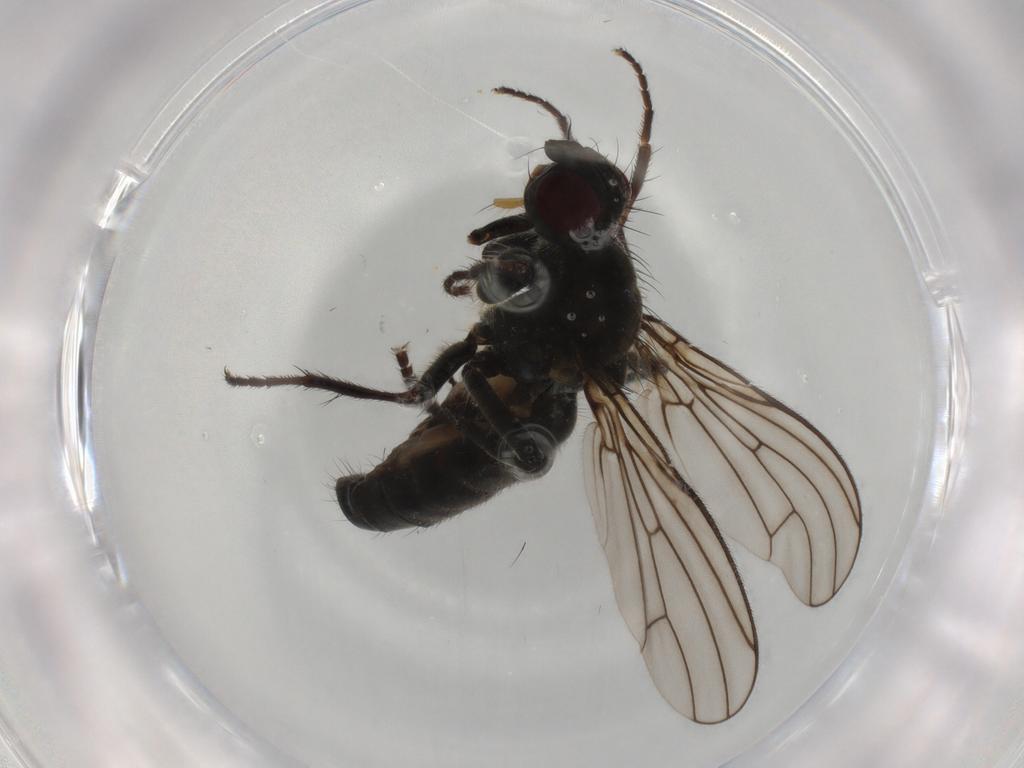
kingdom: Animalia
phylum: Arthropoda
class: Insecta
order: Diptera
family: Scathophagidae
